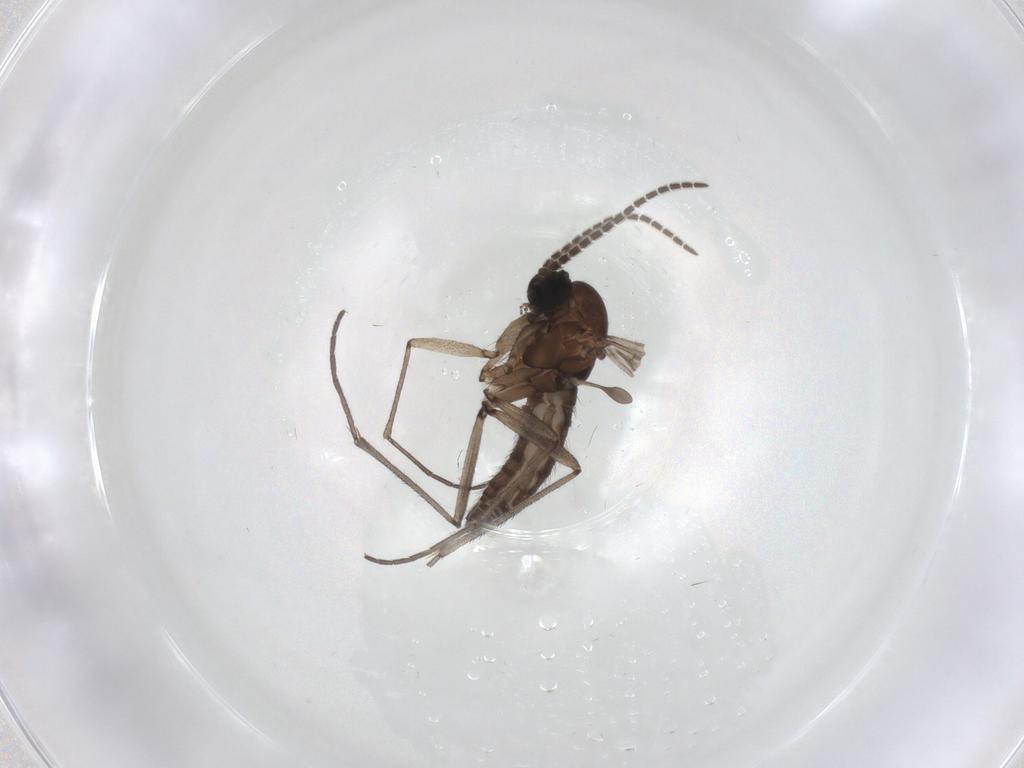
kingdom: Animalia
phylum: Arthropoda
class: Insecta
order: Diptera
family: Sciaridae
